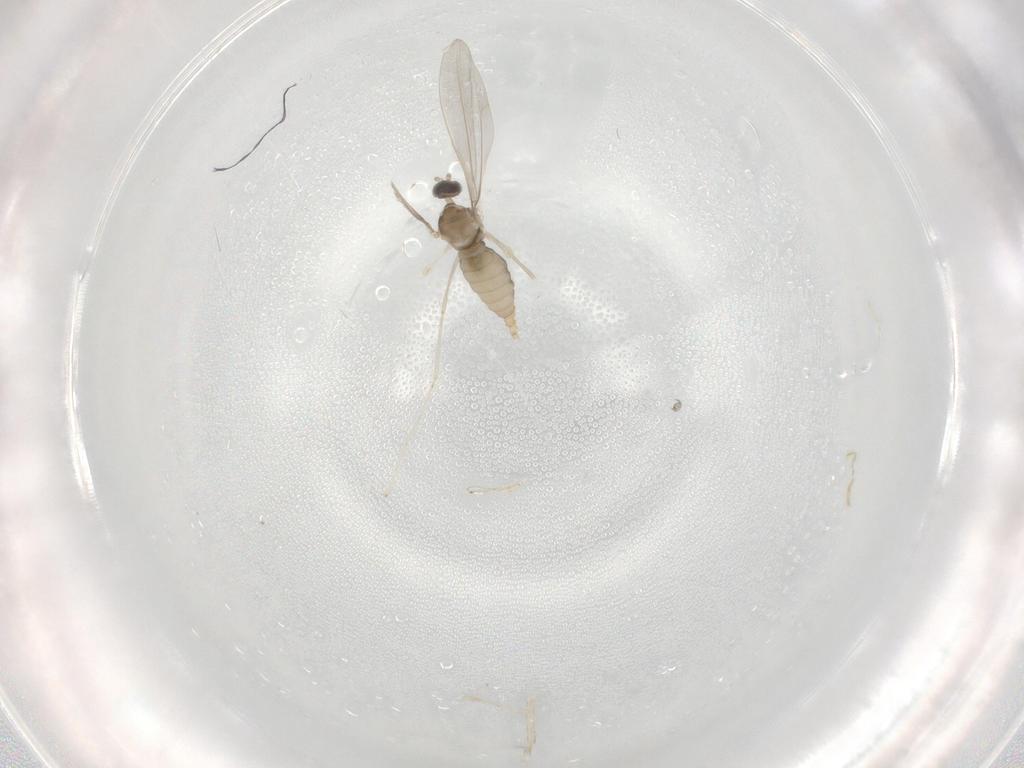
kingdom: Animalia
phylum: Arthropoda
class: Insecta
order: Diptera
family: Cecidomyiidae
